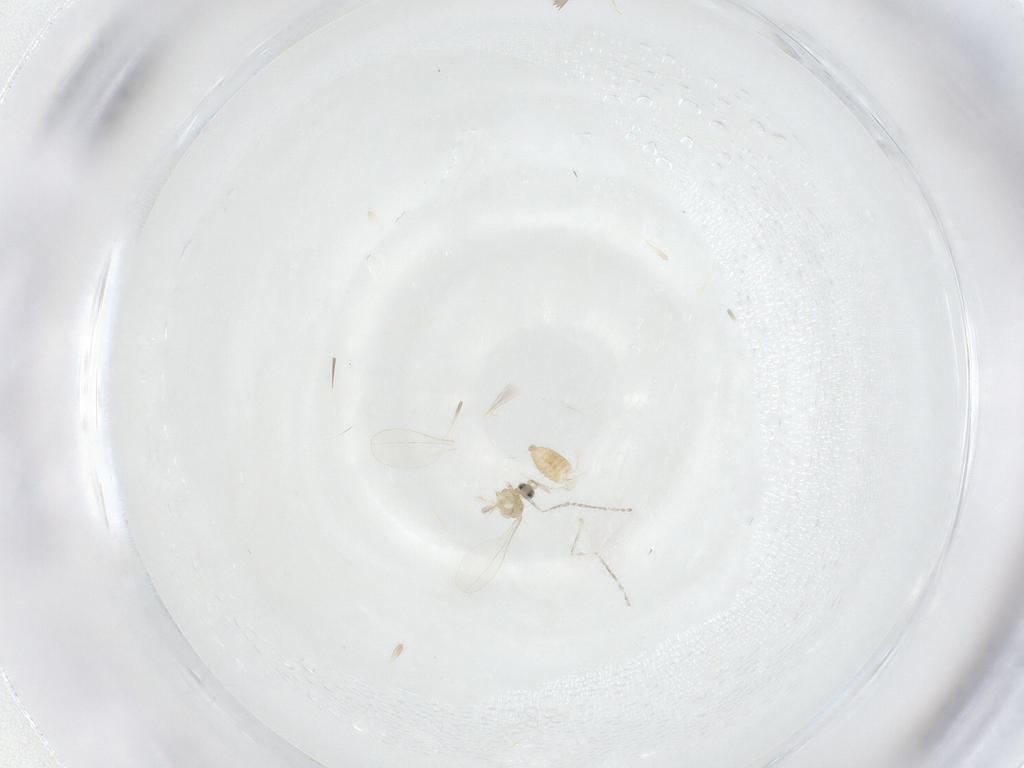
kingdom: Animalia
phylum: Arthropoda
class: Insecta
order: Diptera
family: Cecidomyiidae
